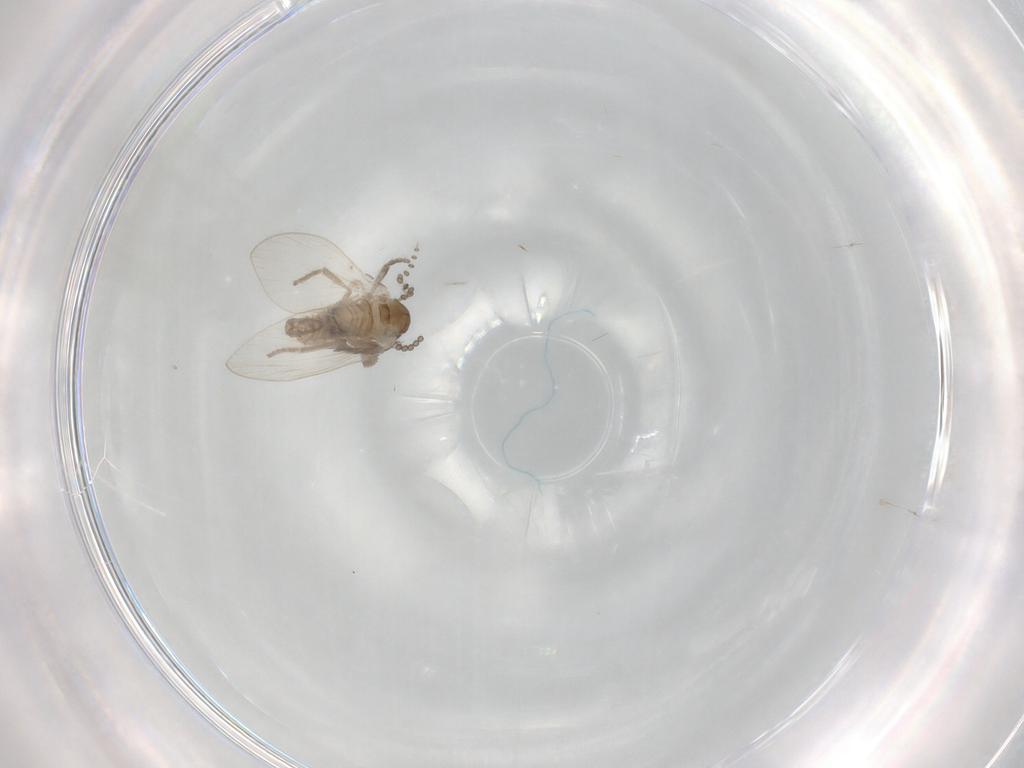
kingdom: Animalia
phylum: Arthropoda
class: Insecta
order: Diptera
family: Psychodidae
